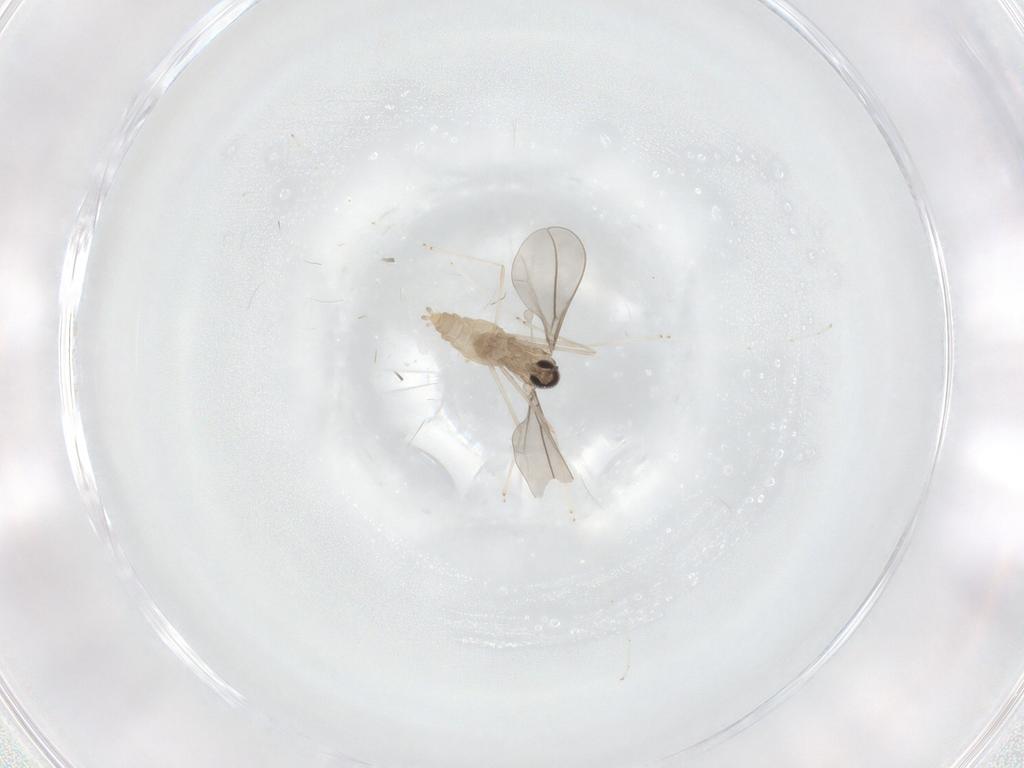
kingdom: Animalia
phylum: Arthropoda
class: Insecta
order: Diptera
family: Cecidomyiidae
